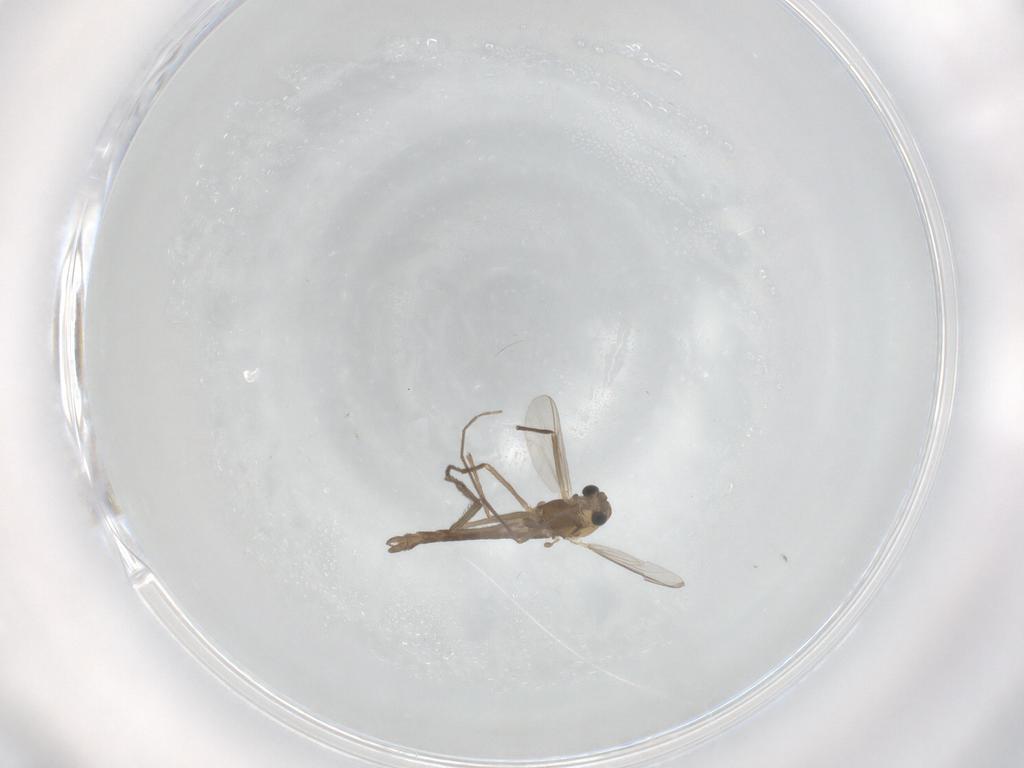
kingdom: Animalia
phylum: Arthropoda
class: Insecta
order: Diptera
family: Chironomidae
